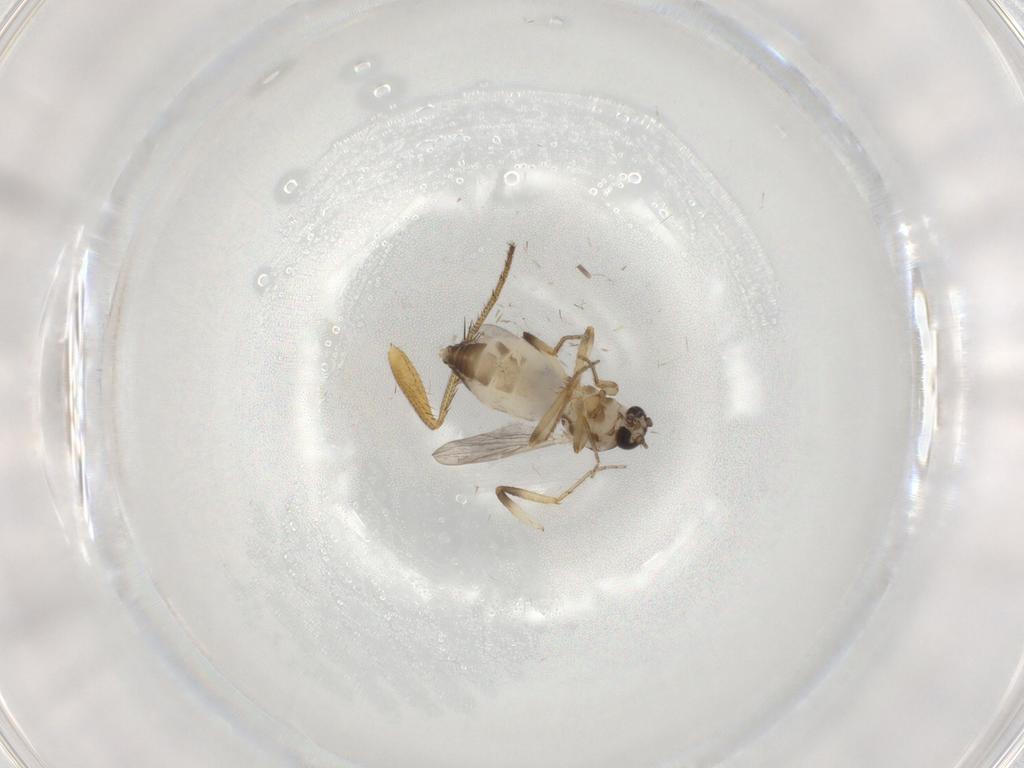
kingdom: Animalia
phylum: Arthropoda
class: Insecta
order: Diptera
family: Ceratopogonidae
